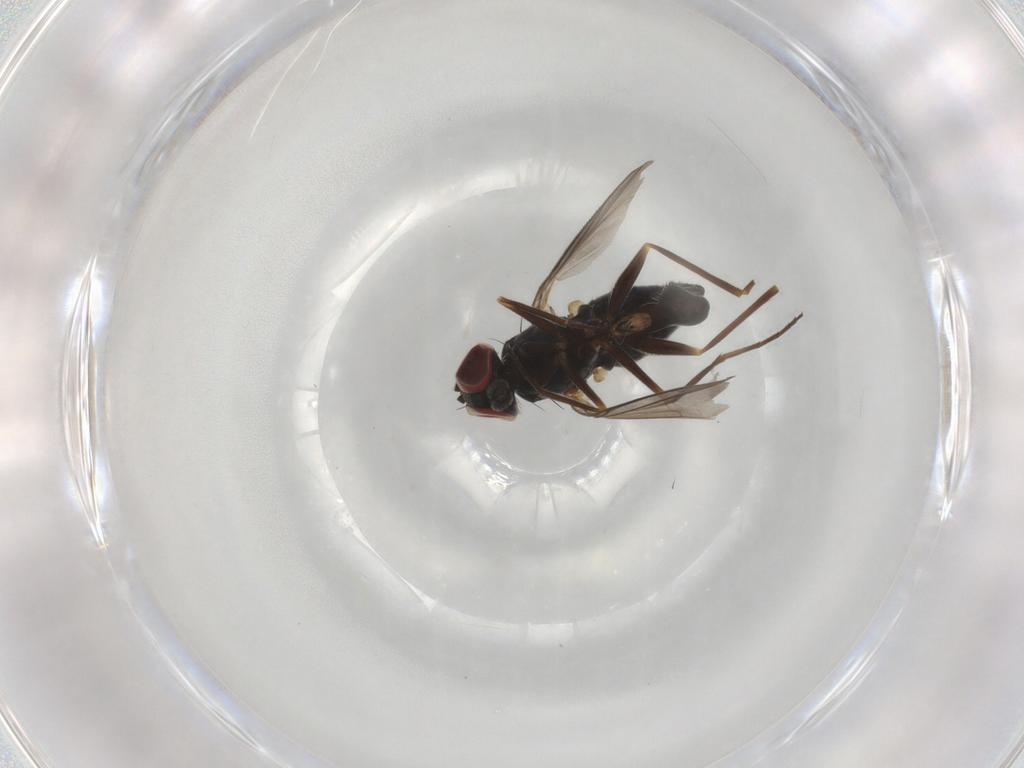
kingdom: Animalia
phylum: Arthropoda
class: Insecta
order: Diptera
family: Dolichopodidae
